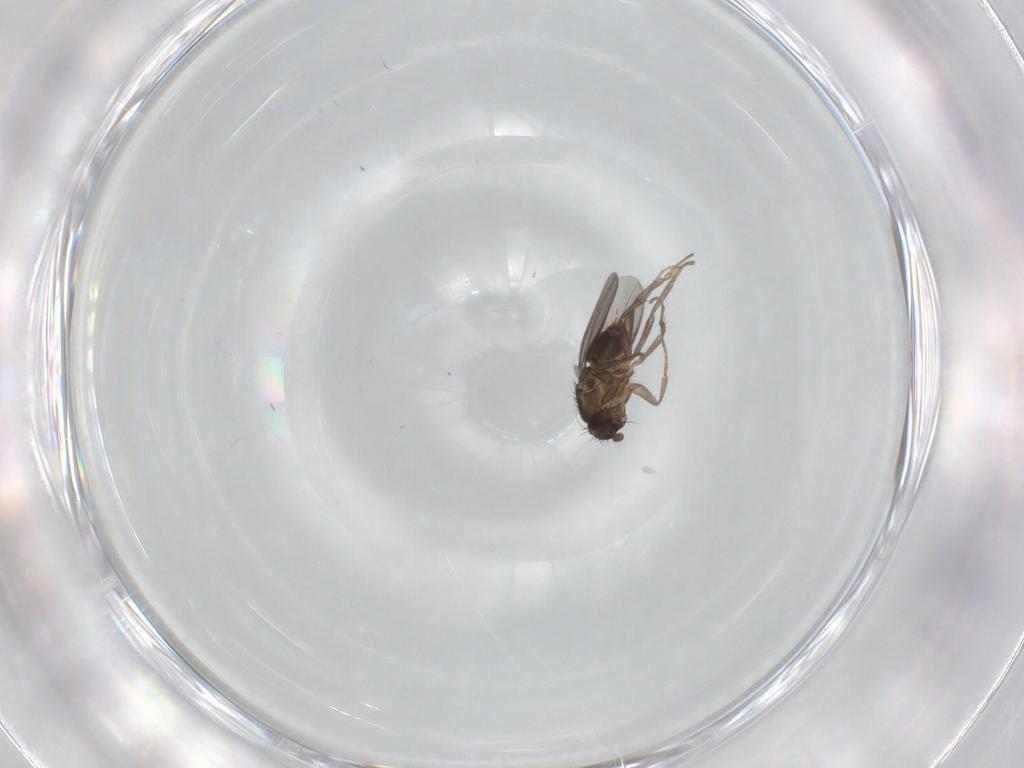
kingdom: Animalia
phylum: Arthropoda
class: Insecta
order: Diptera
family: Sphaeroceridae
